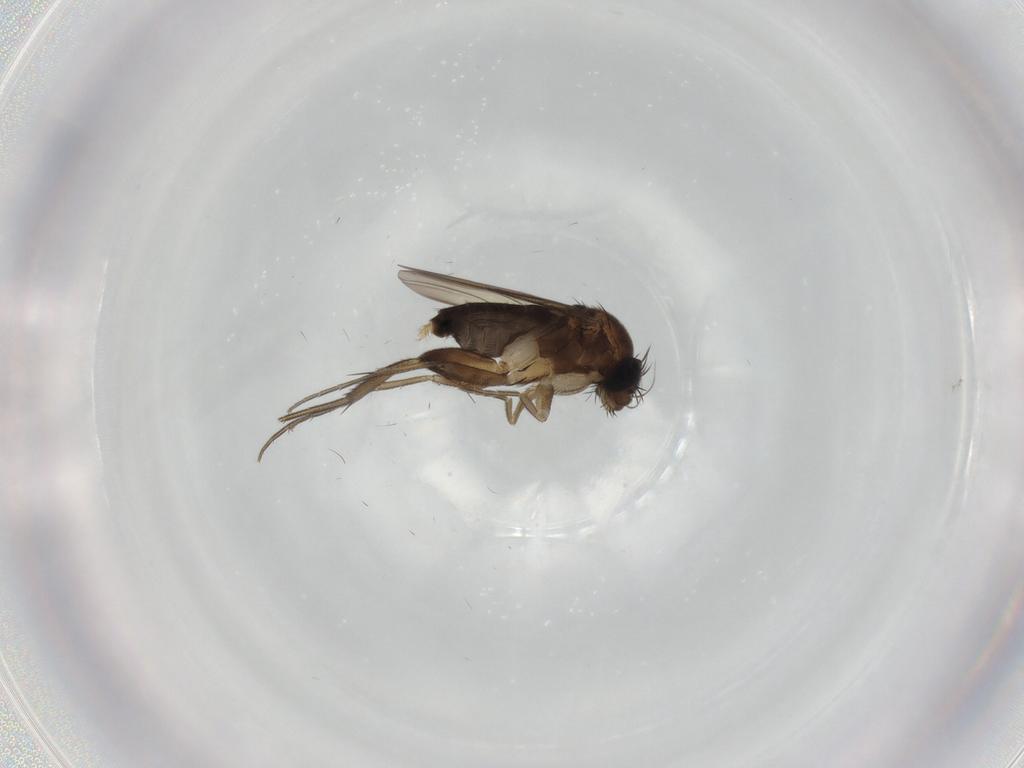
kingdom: Animalia
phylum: Arthropoda
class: Insecta
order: Diptera
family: Phoridae
